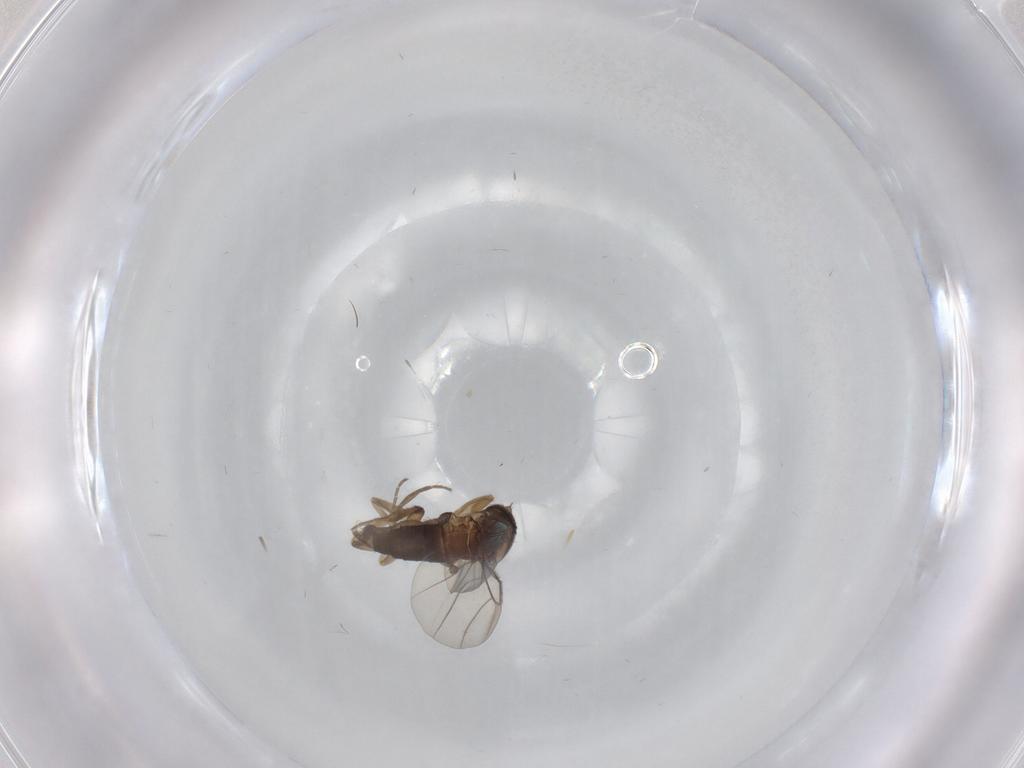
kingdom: Animalia
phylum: Arthropoda
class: Insecta
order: Diptera
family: Phoridae
